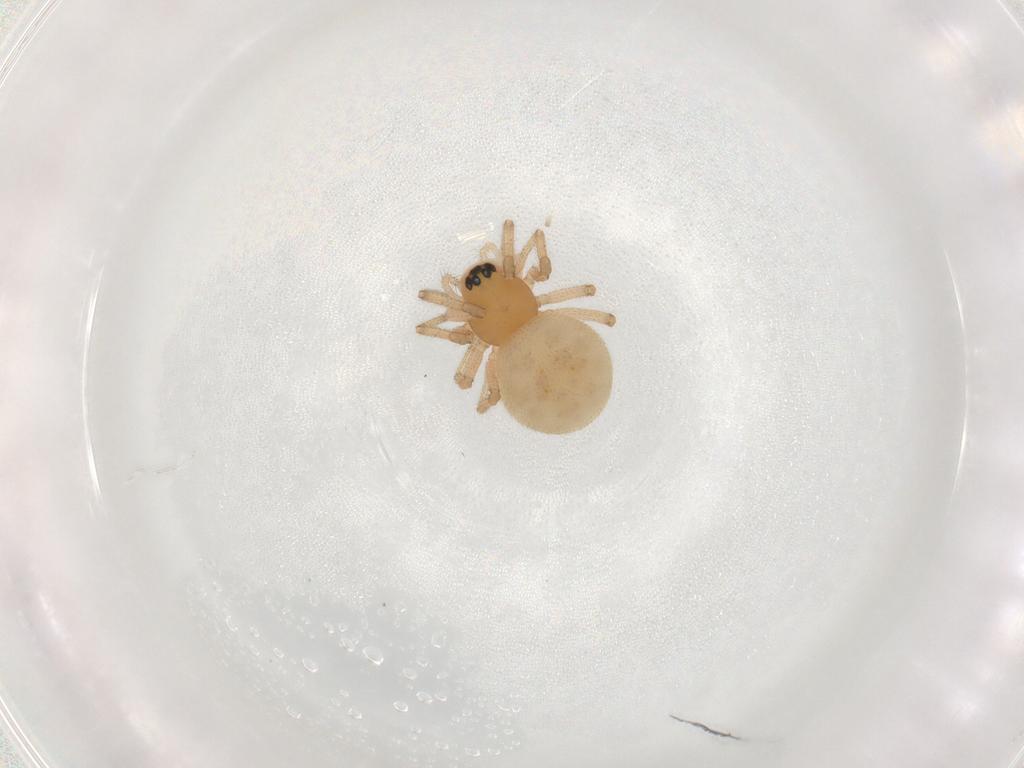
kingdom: Animalia
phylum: Arthropoda
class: Arachnida
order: Araneae
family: Linyphiidae
